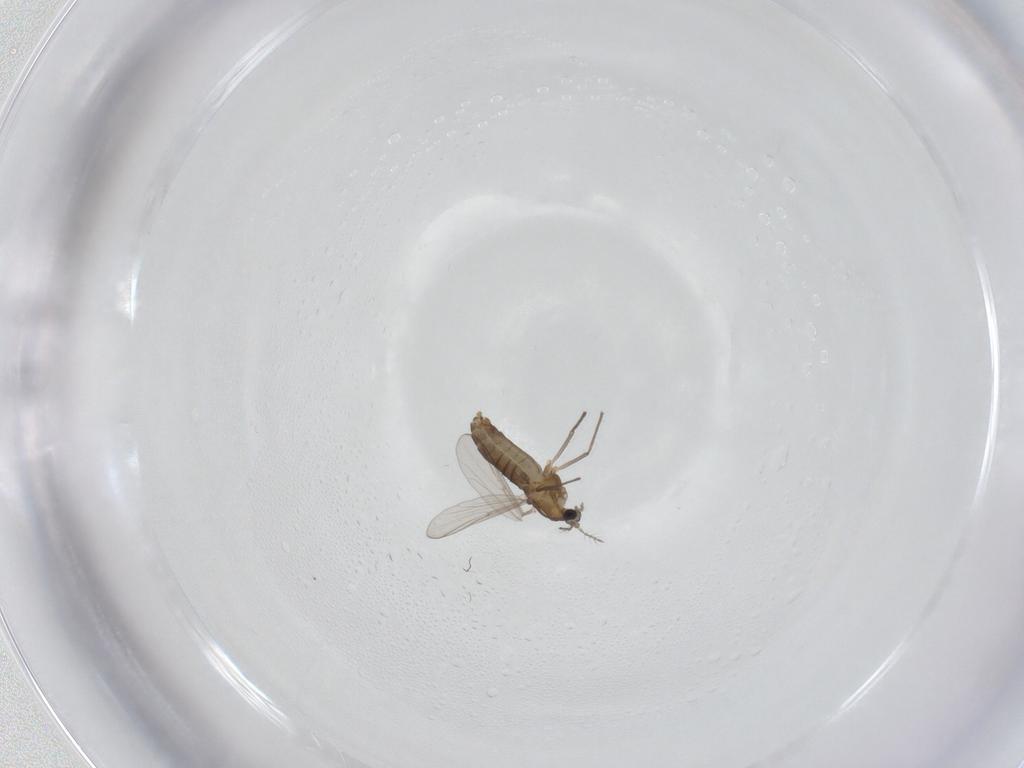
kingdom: Animalia
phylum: Arthropoda
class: Insecta
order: Diptera
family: Chironomidae
